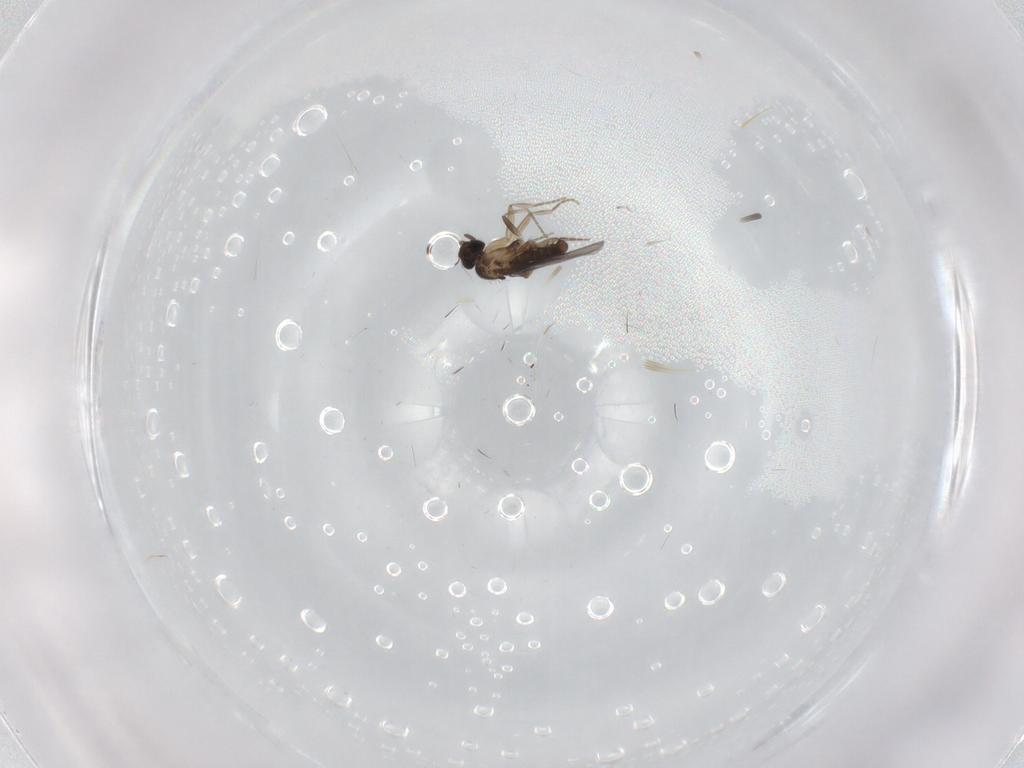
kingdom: Animalia
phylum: Arthropoda
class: Insecta
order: Diptera
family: Cecidomyiidae
